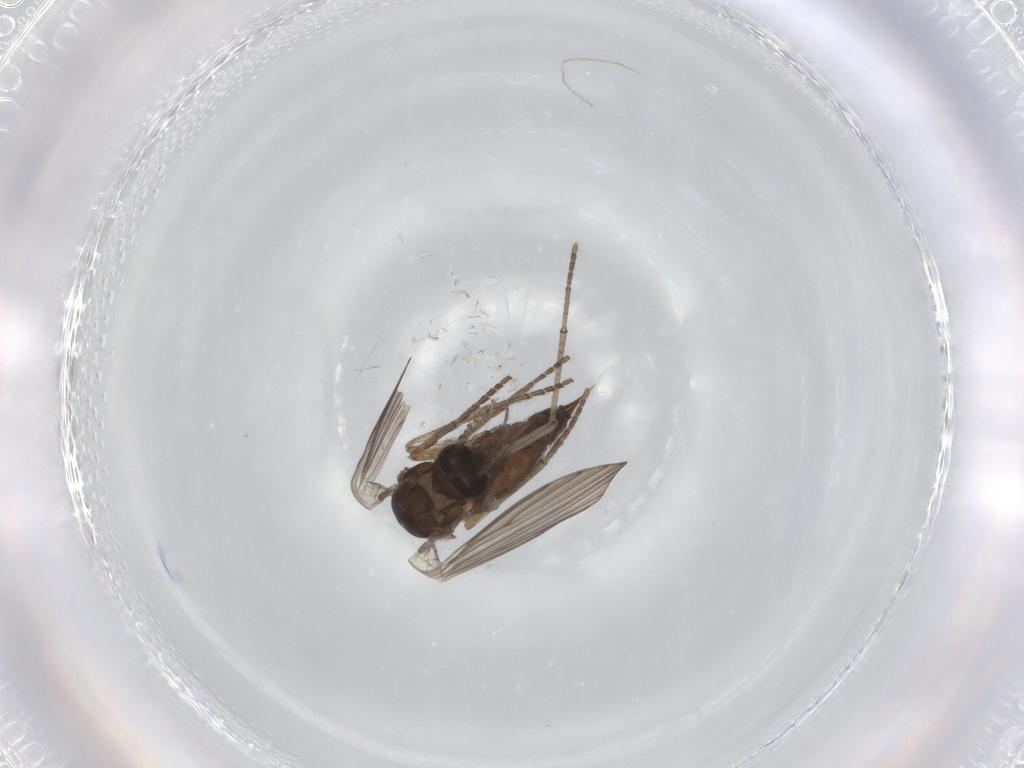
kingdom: Animalia
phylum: Arthropoda
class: Insecta
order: Diptera
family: Psychodidae
